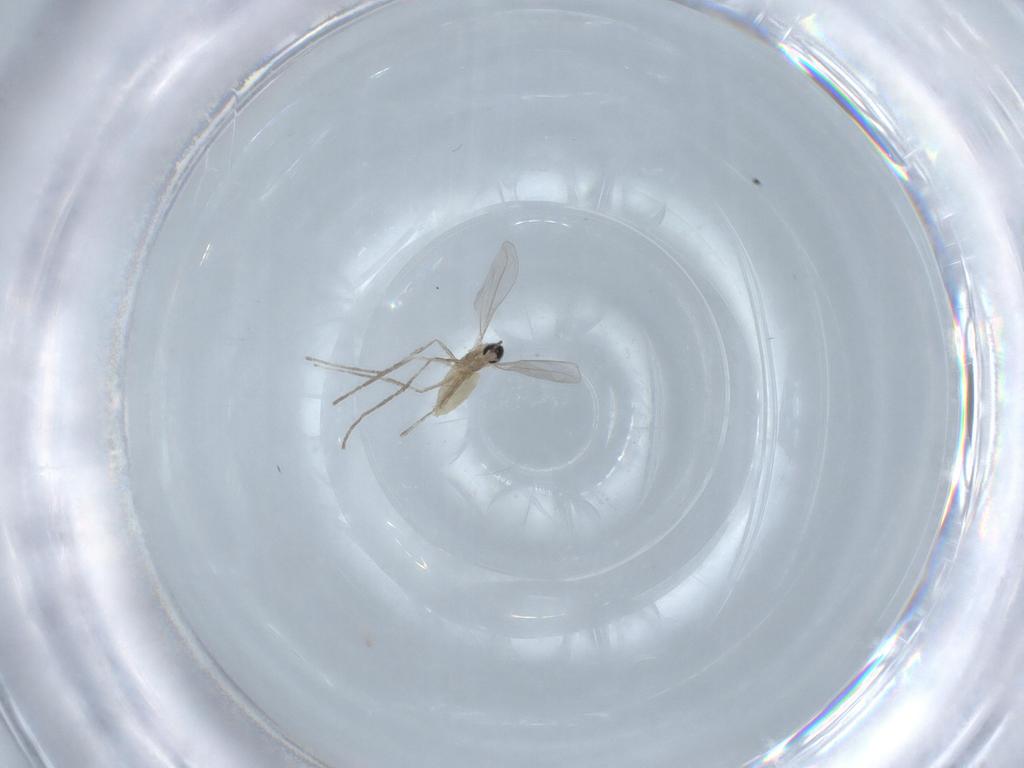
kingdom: Animalia
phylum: Arthropoda
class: Insecta
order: Diptera
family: Cecidomyiidae
